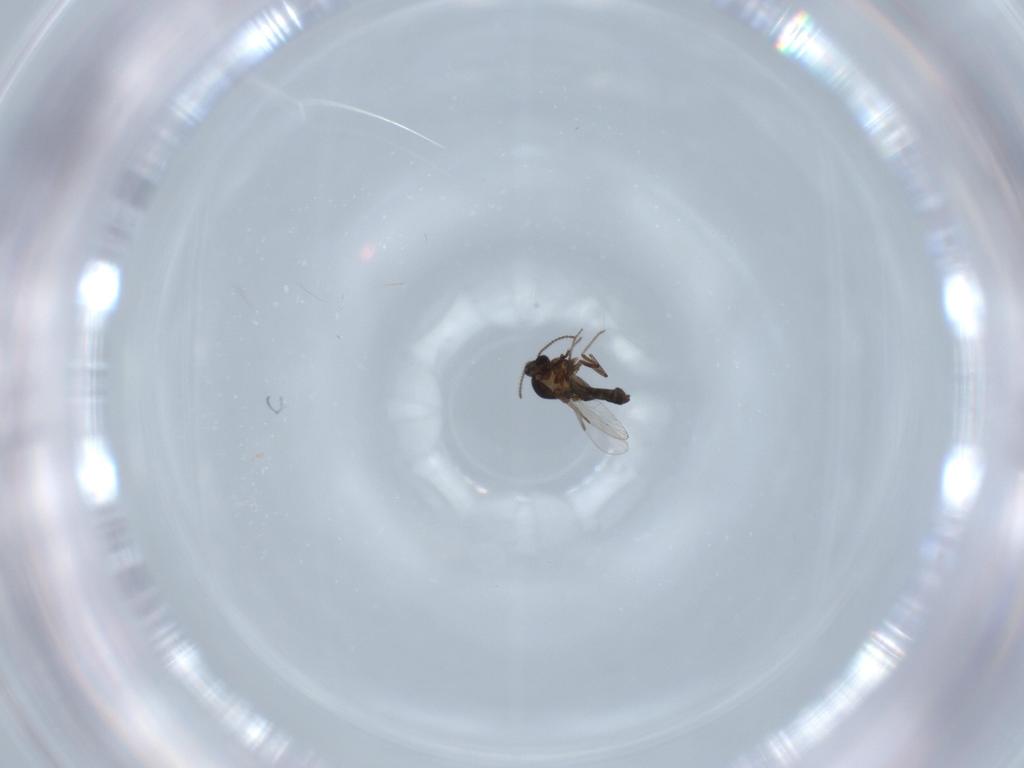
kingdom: Animalia
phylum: Arthropoda
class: Insecta
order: Diptera
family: Ceratopogonidae
